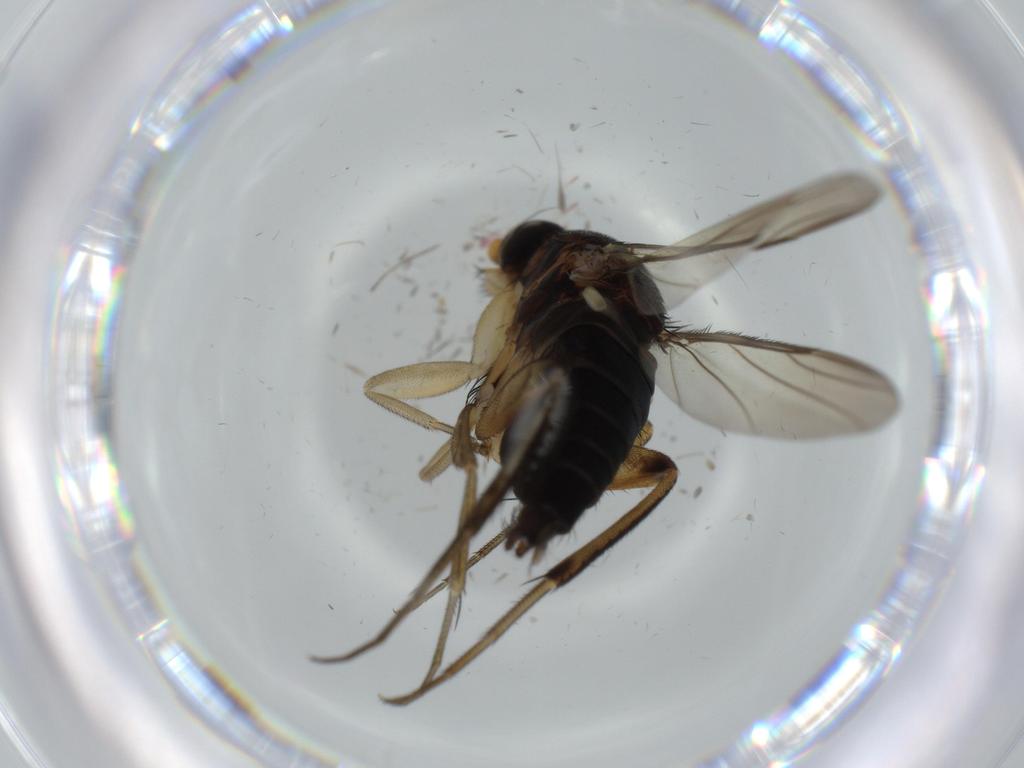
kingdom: Animalia
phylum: Arthropoda
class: Insecta
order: Diptera
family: Phoridae
